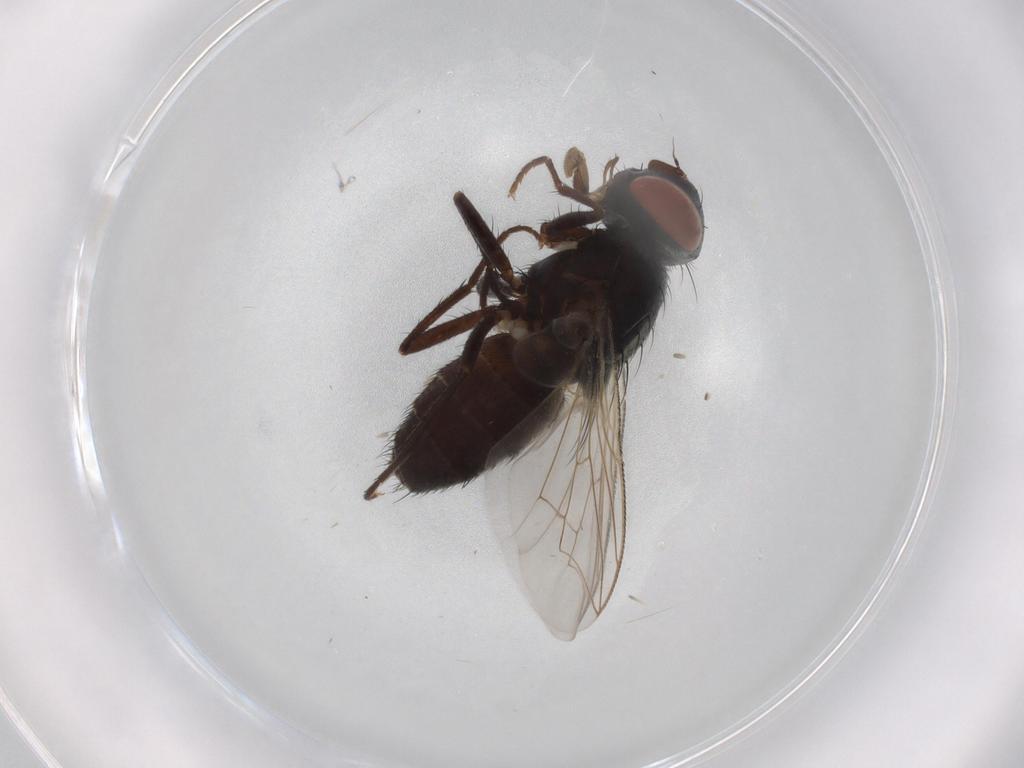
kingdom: Animalia
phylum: Arthropoda
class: Insecta
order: Diptera
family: Sarcophagidae
